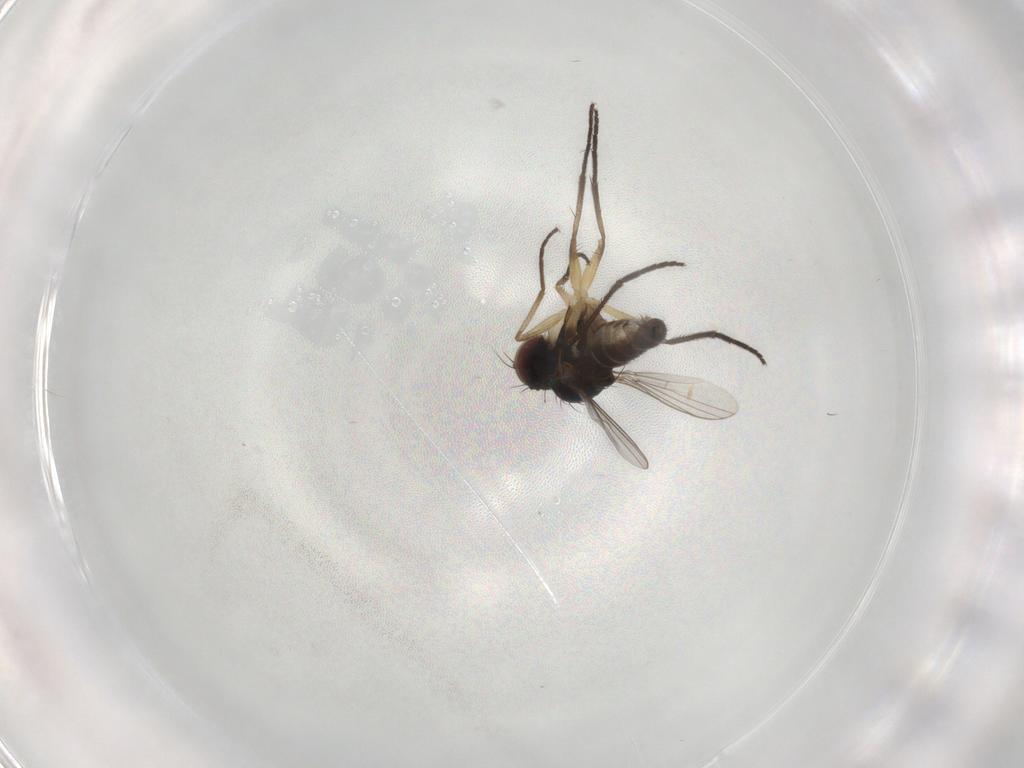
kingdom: Animalia
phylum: Arthropoda
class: Insecta
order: Diptera
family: Dolichopodidae
